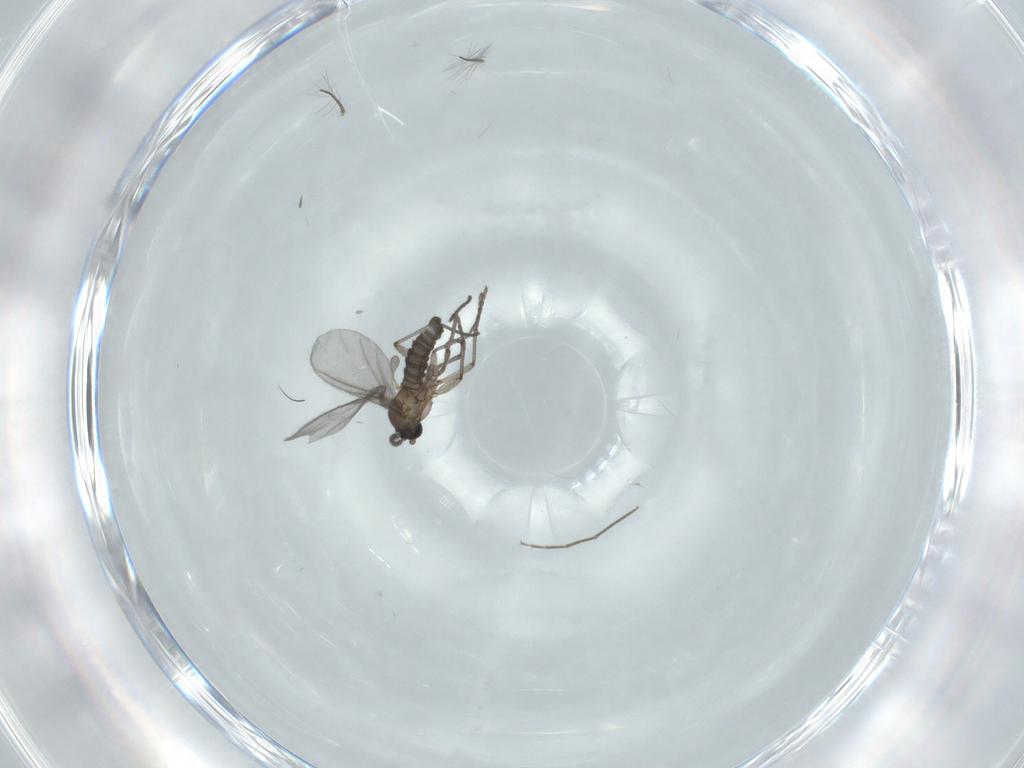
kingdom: Animalia
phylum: Arthropoda
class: Insecta
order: Diptera
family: Sciaridae
